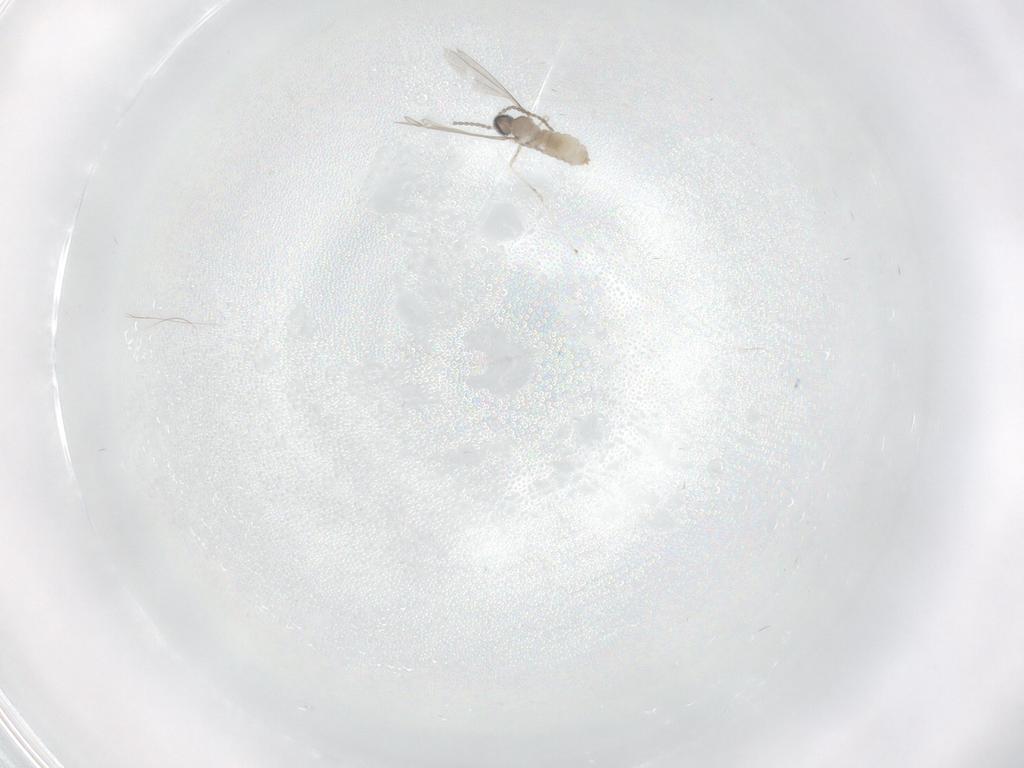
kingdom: Animalia
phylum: Arthropoda
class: Insecta
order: Diptera
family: Cecidomyiidae
